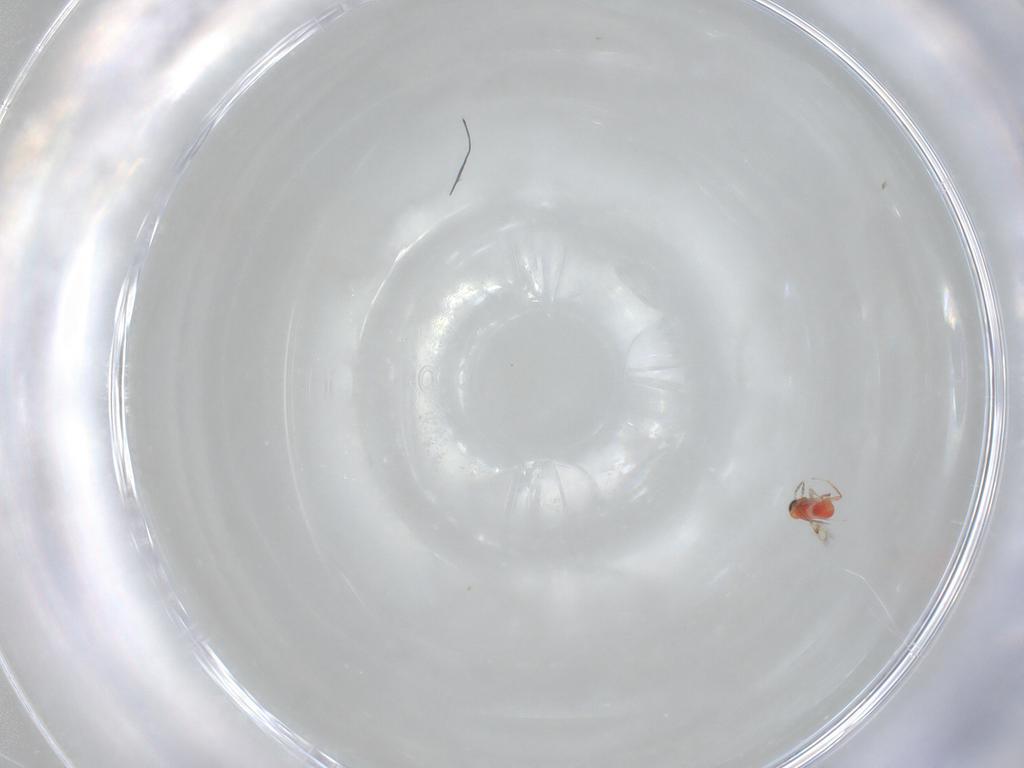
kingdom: Animalia
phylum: Arthropoda
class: Insecta
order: Hymenoptera
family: Trichogrammatidae
